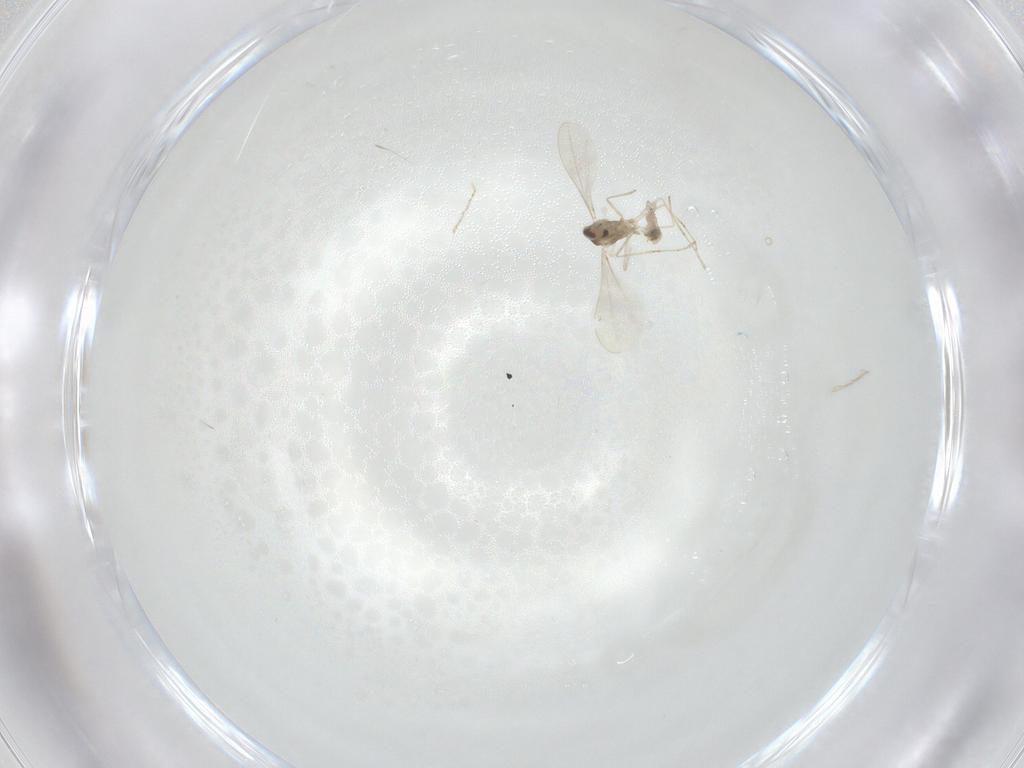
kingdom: Animalia
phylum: Arthropoda
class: Insecta
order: Diptera
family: Cecidomyiidae
